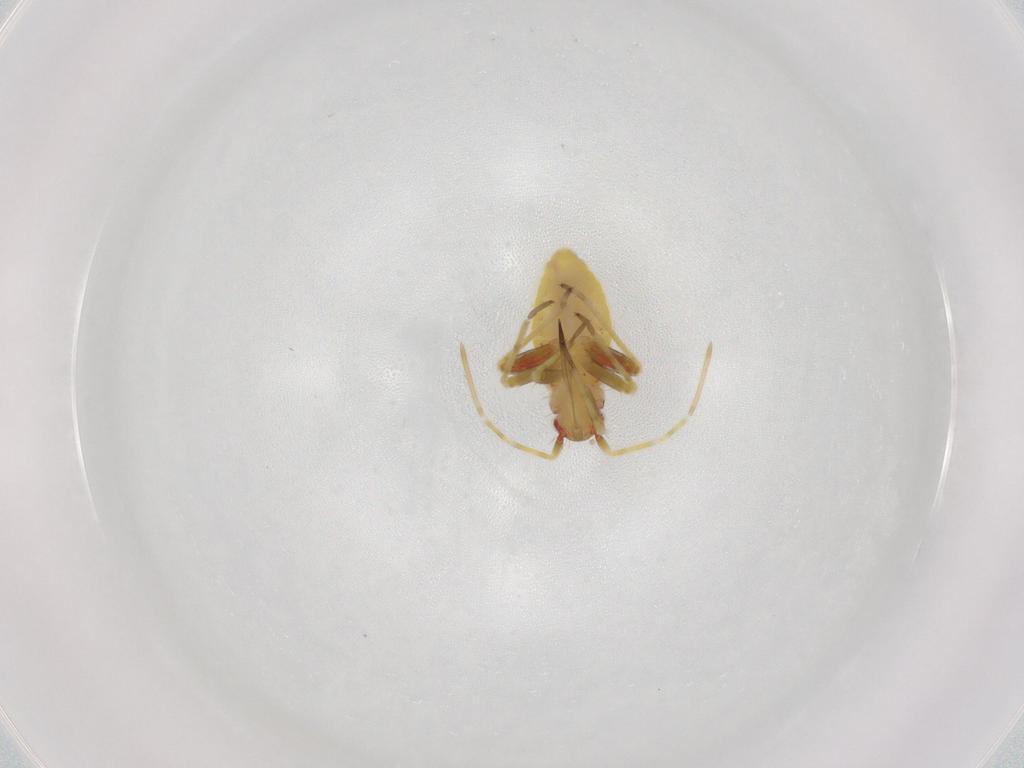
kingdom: Animalia
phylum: Arthropoda
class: Insecta
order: Hemiptera
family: Miridae
